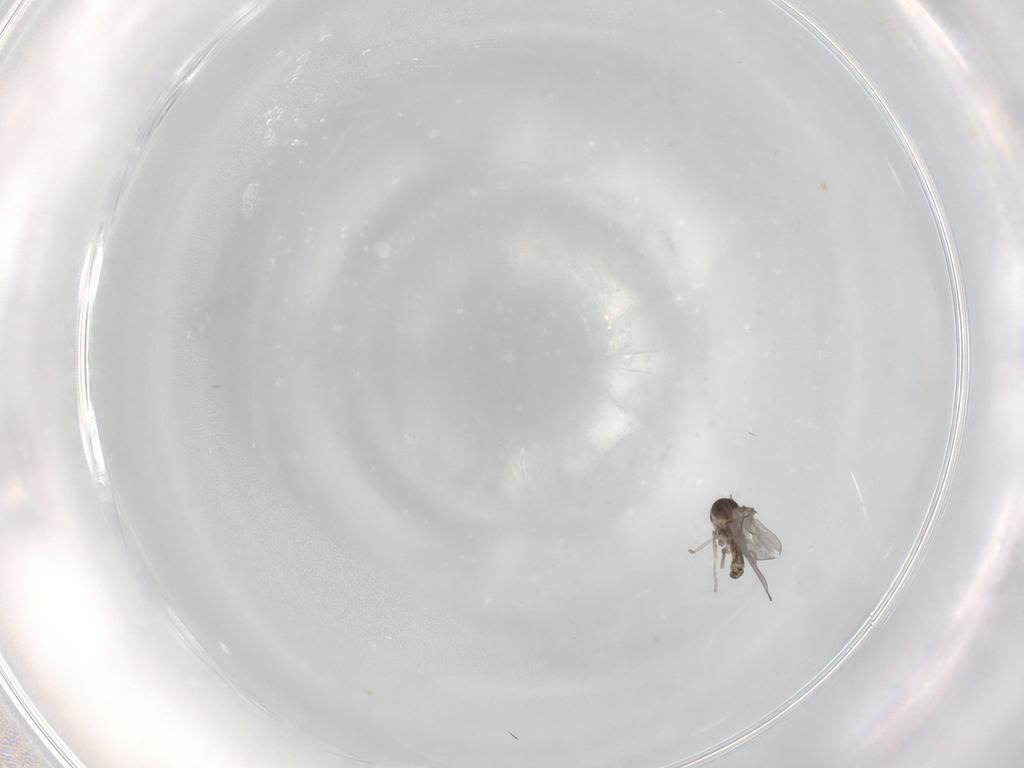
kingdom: Animalia
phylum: Arthropoda
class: Insecta
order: Diptera
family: Cecidomyiidae
